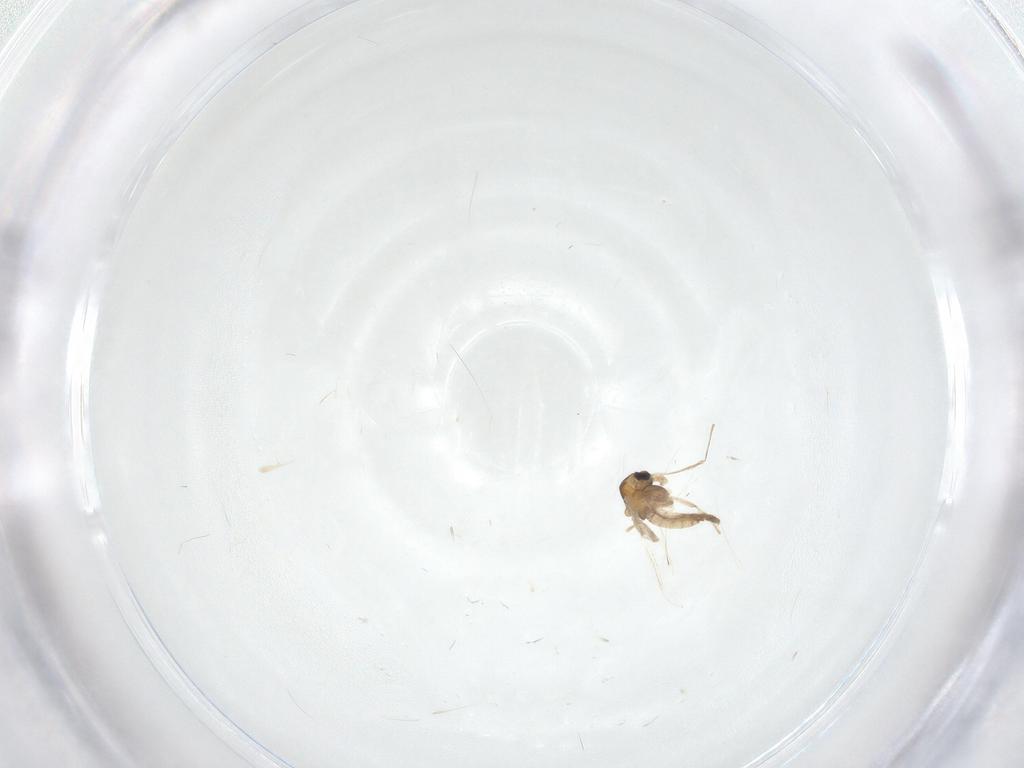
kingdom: Animalia
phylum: Arthropoda
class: Insecta
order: Diptera
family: Chironomidae
